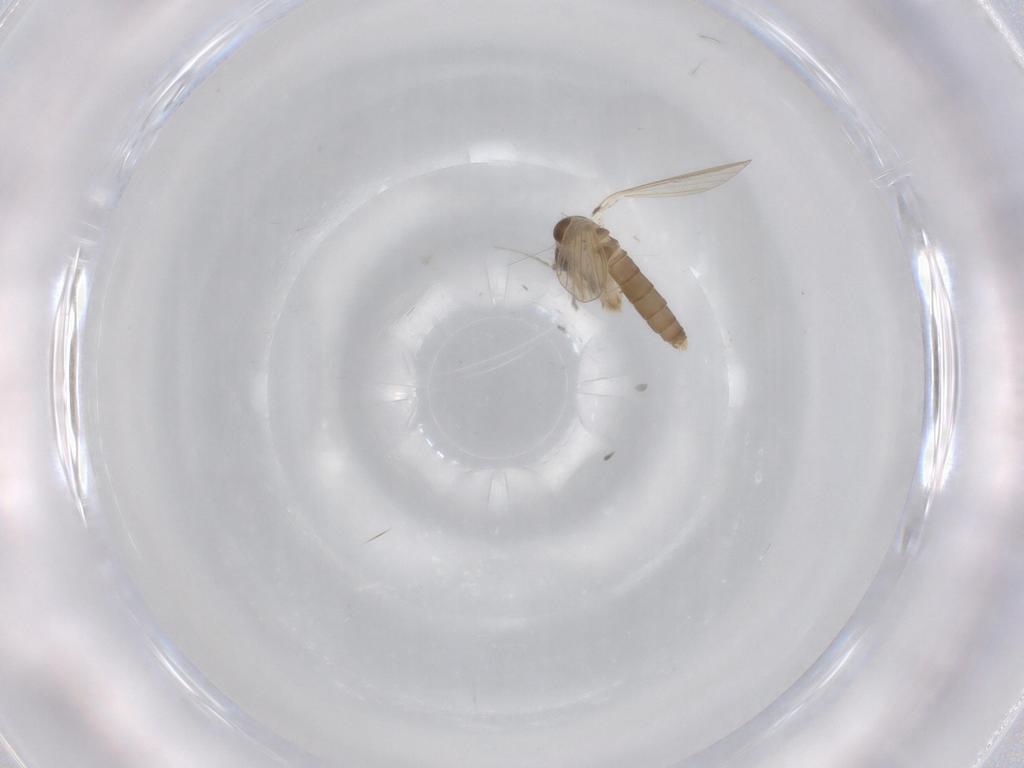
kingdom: Animalia
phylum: Arthropoda
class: Insecta
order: Diptera
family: Psychodidae
